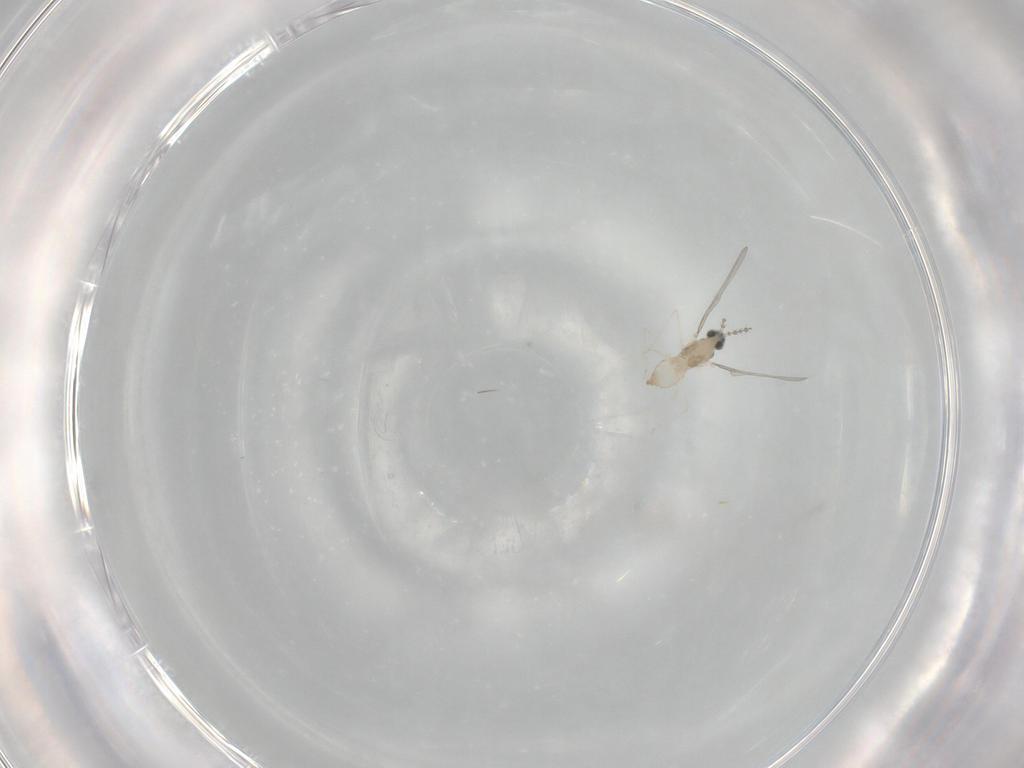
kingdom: Animalia
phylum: Arthropoda
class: Insecta
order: Diptera
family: Cecidomyiidae
